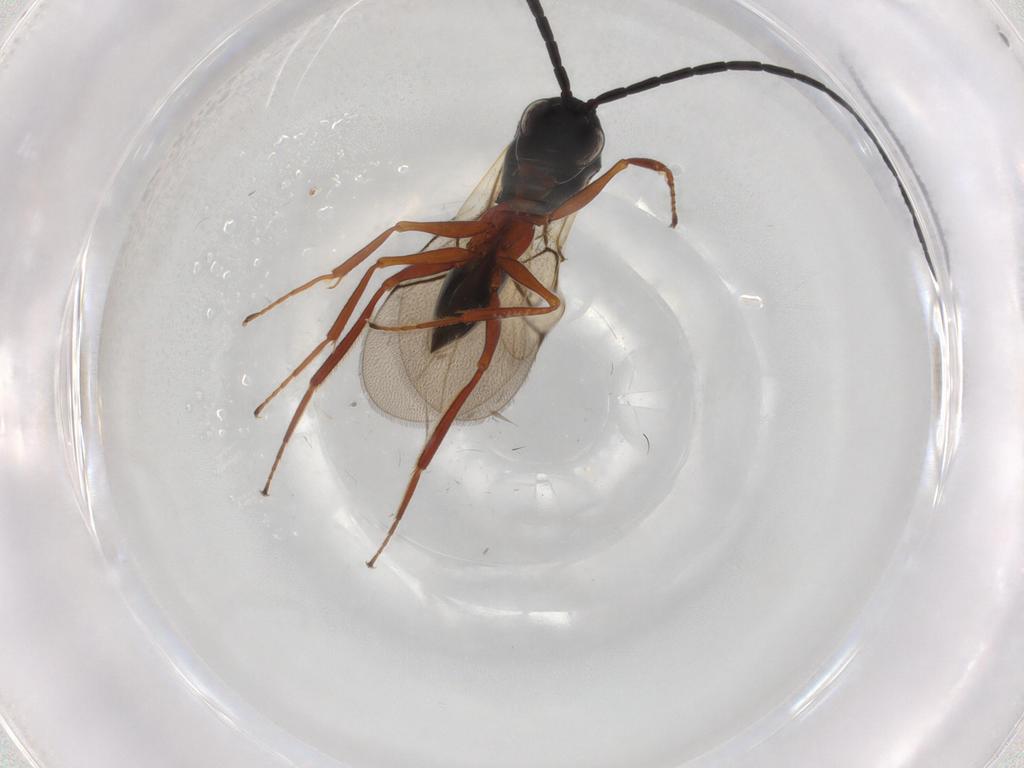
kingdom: Animalia
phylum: Arthropoda
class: Insecta
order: Hymenoptera
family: Figitidae
